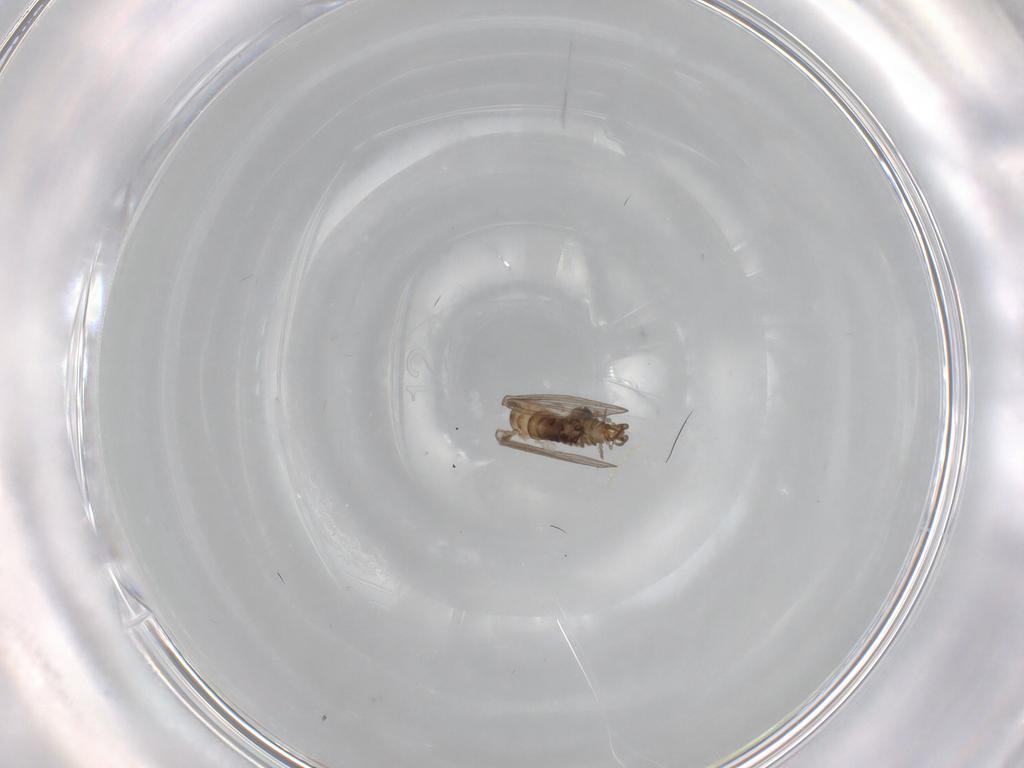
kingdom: Animalia
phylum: Arthropoda
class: Insecta
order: Diptera
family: Psychodidae
